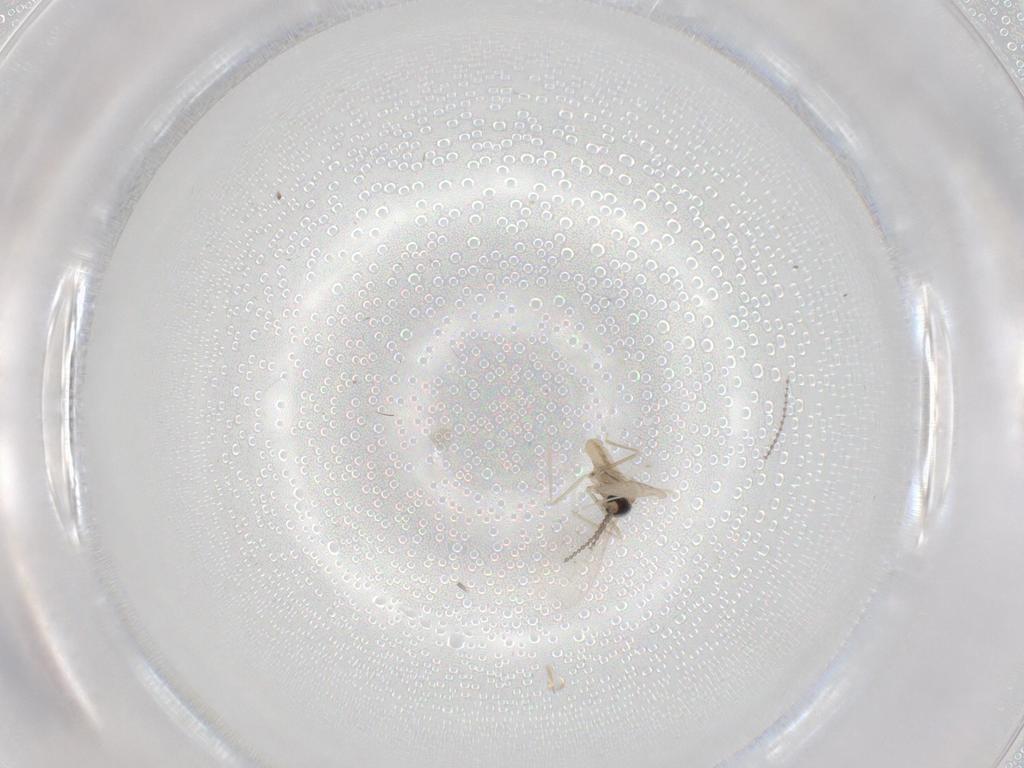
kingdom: Animalia
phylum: Arthropoda
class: Insecta
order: Diptera
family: Cecidomyiidae
